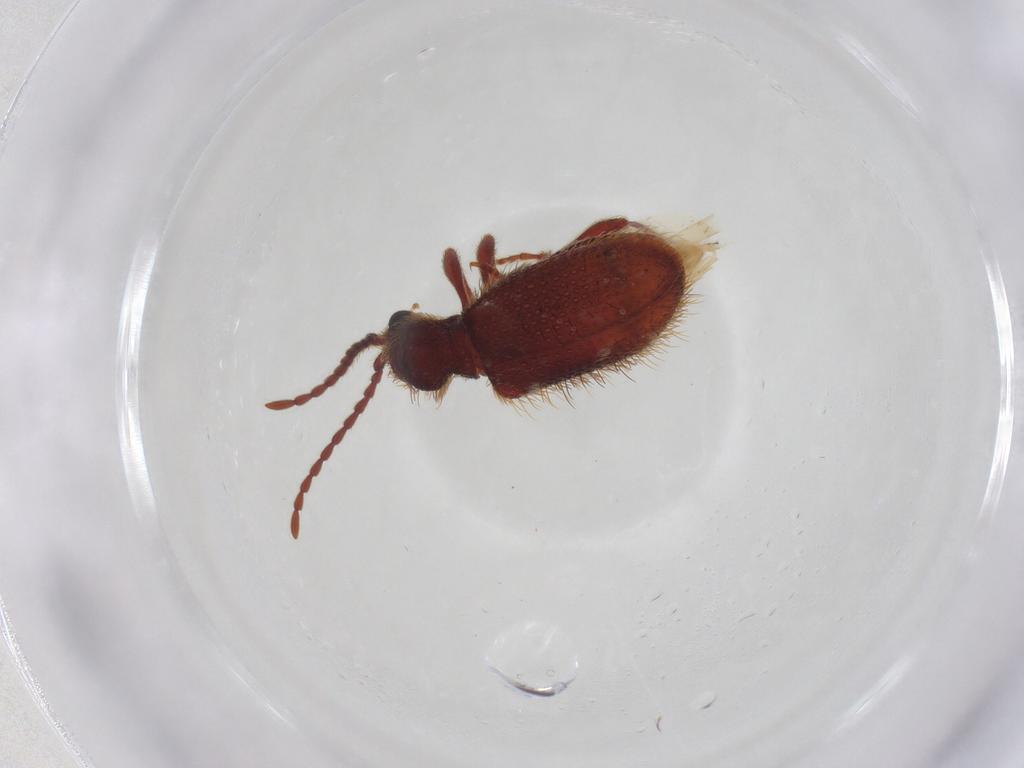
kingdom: Animalia
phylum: Arthropoda
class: Insecta
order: Coleoptera
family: Ptinidae
